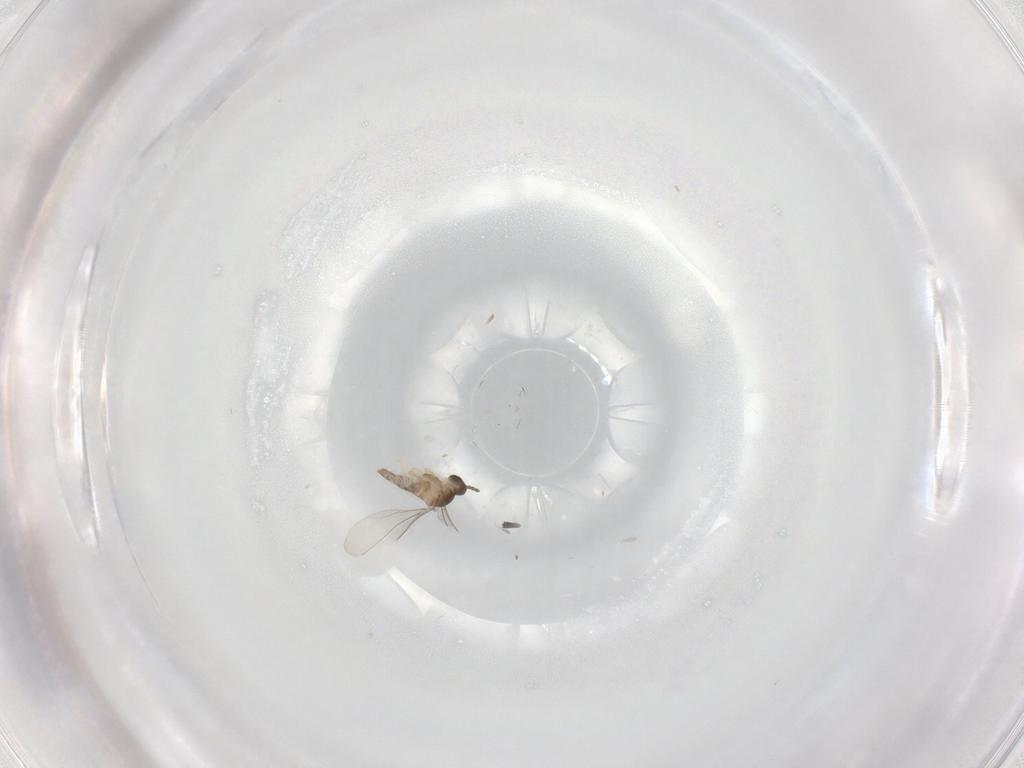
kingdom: Animalia
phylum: Arthropoda
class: Insecta
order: Diptera
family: Cecidomyiidae
